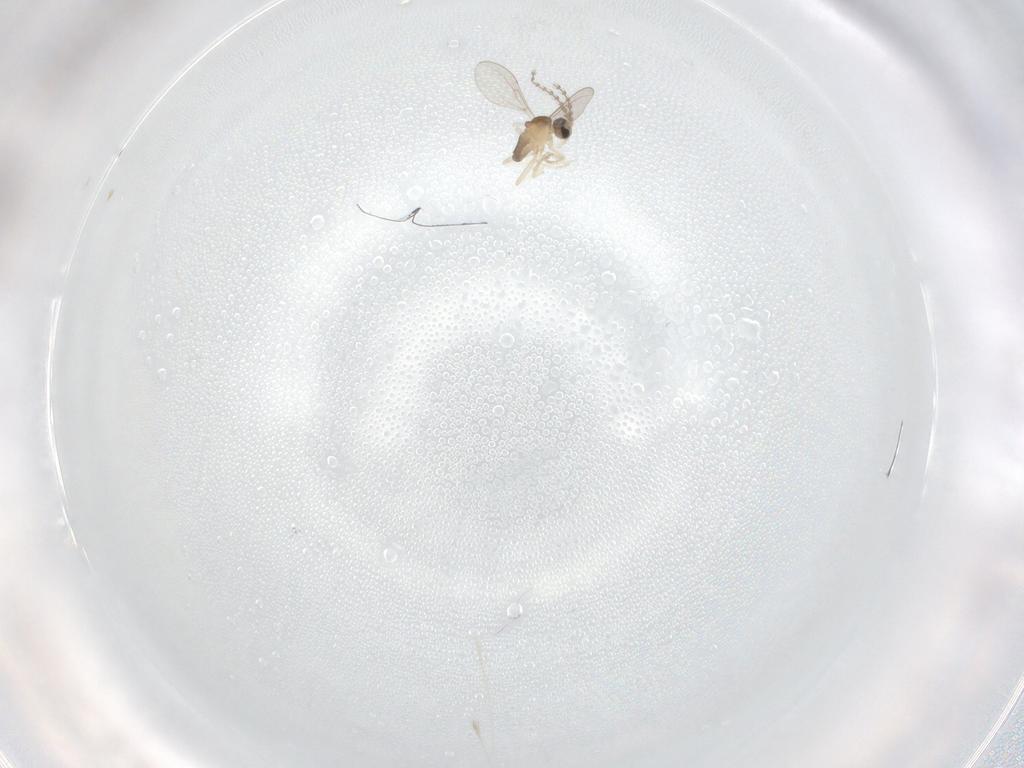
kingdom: Animalia
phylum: Arthropoda
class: Insecta
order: Diptera
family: Cecidomyiidae
